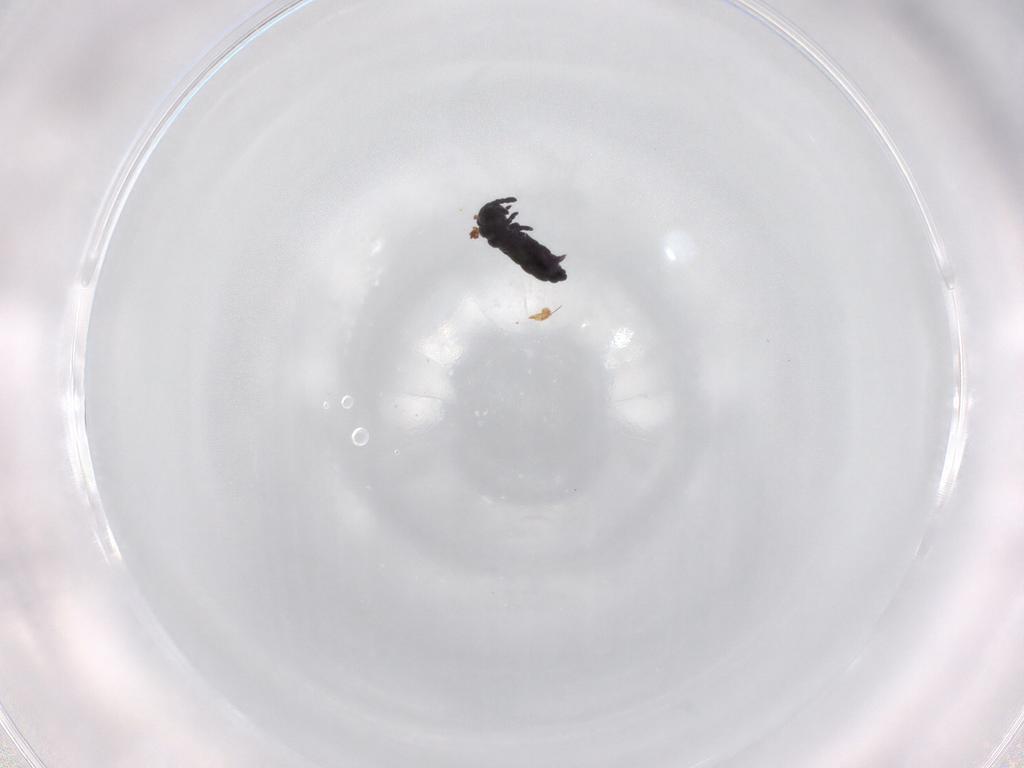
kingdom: Animalia
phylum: Arthropoda
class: Collembola
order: Poduromorpha
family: Hypogastruridae
